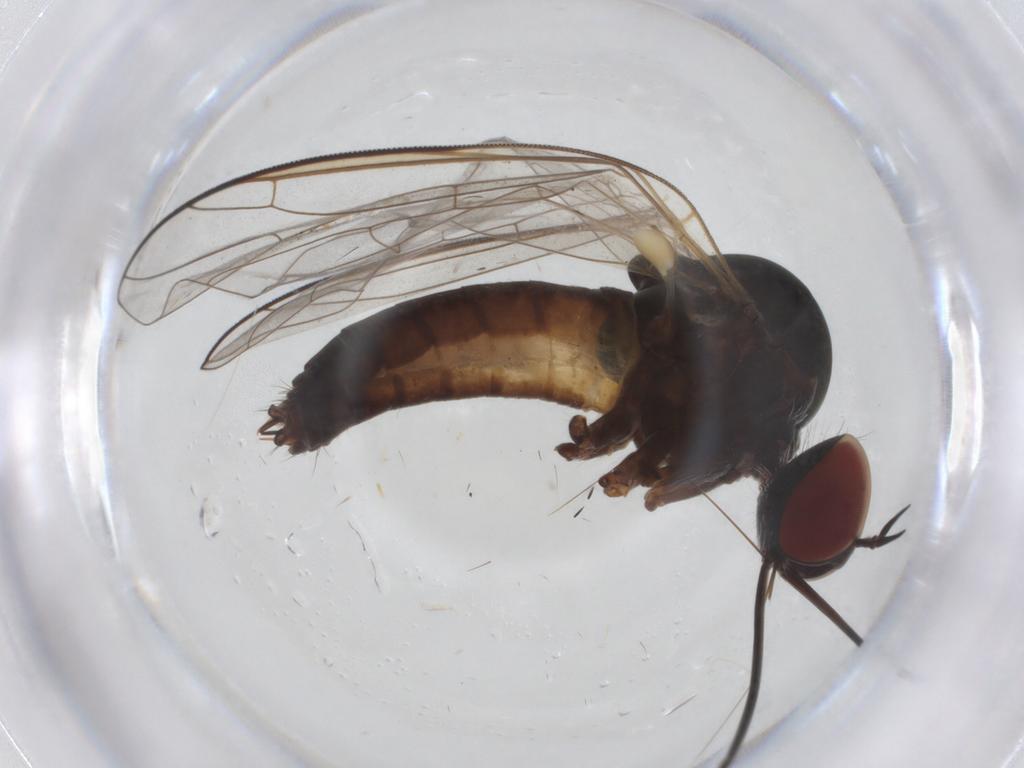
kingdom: Animalia
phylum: Arthropoda
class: Insecta
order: Diptera
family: Bombyliidae
